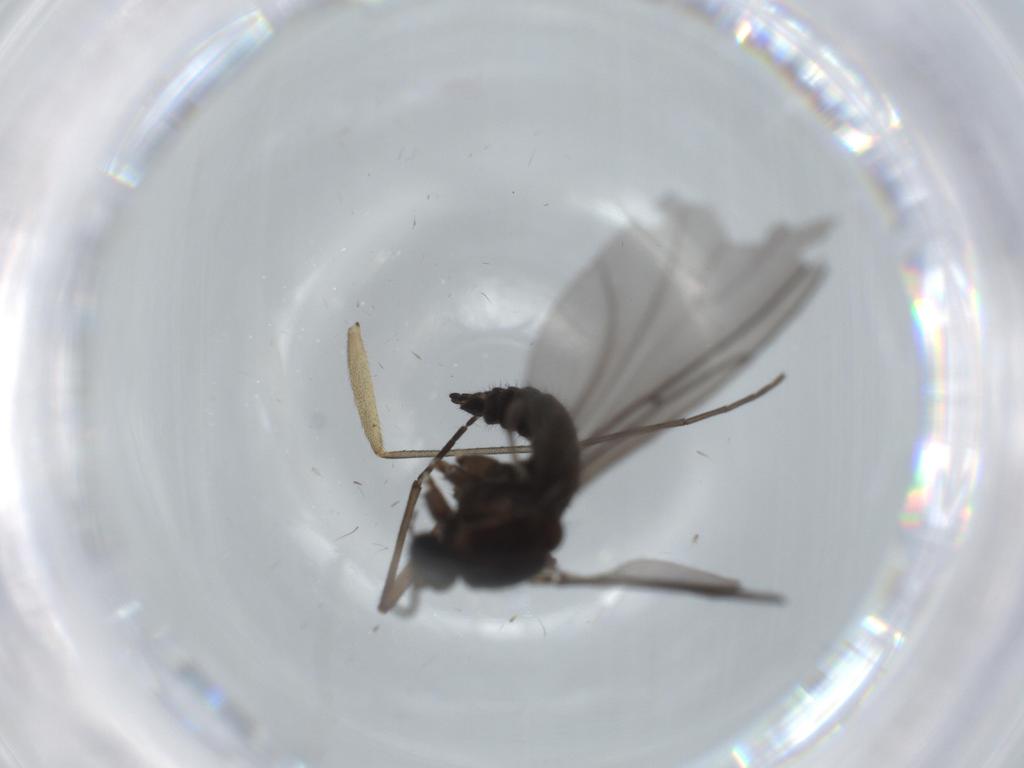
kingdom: Animalia
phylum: Arthropoda
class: Insecta
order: Diptera
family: Sciaridae
